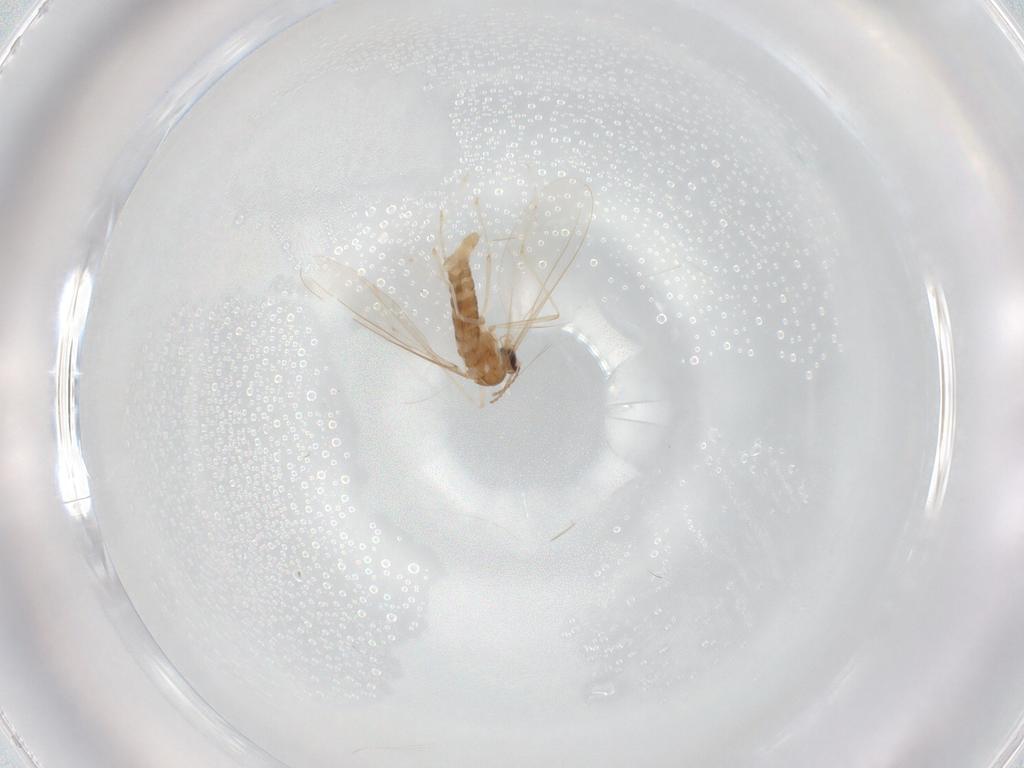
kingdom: Animalia
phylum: Arthropoda
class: Insecta
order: Diptera
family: Cecidomyiidae
